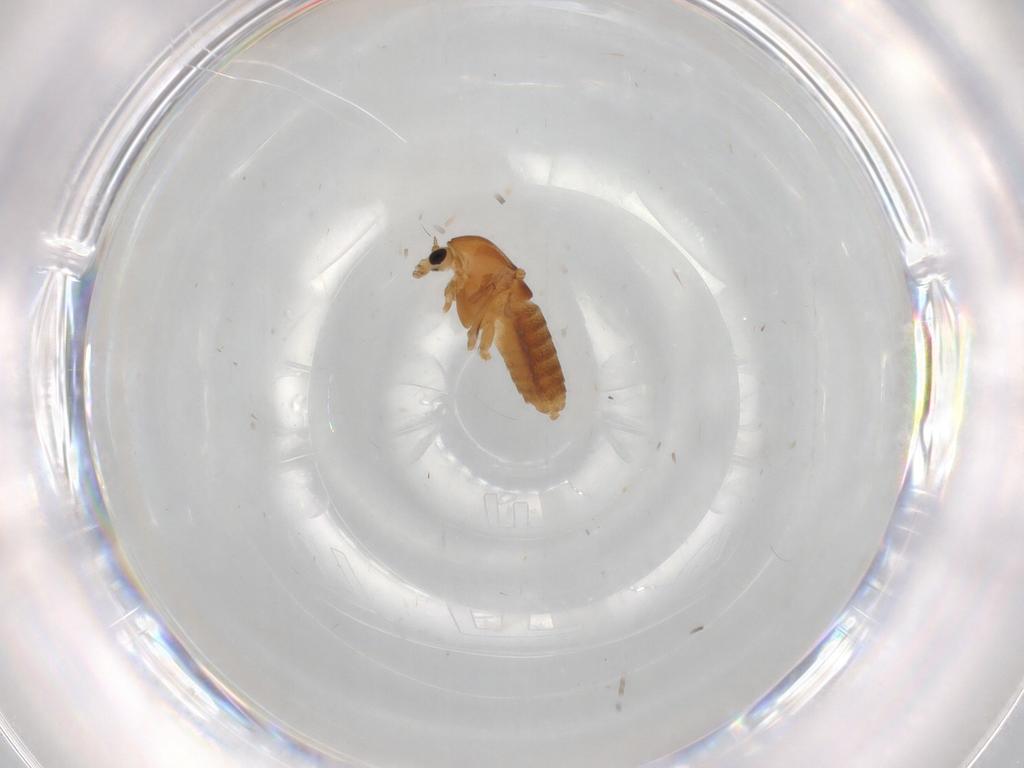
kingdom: Animalia
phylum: Arthropoda
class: Insecta
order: Diptera
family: Chironomidae
